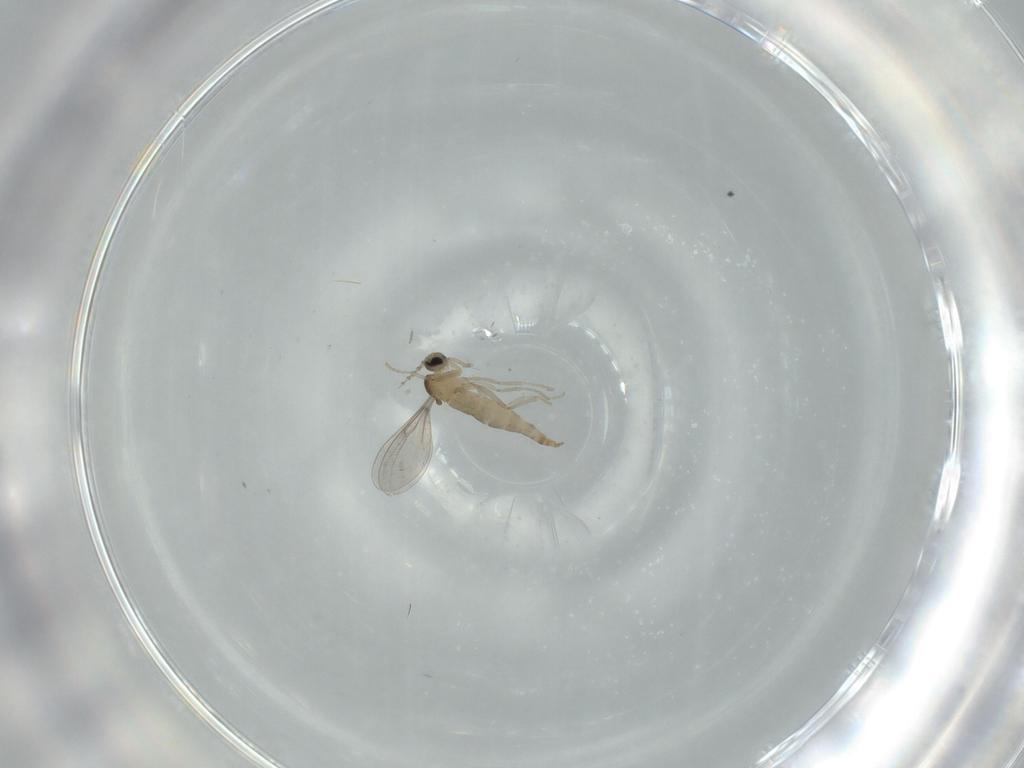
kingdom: Animalia
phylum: Arthropoda
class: Insecta
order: Diptera
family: Cecidomyiidae
